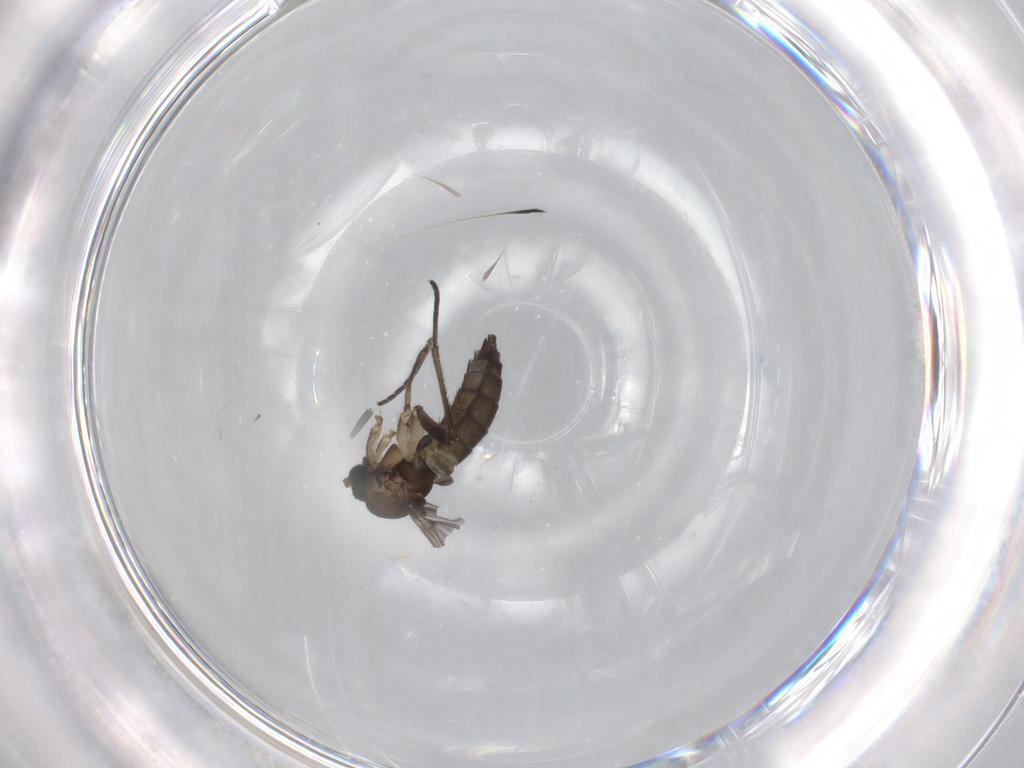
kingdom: Animalia
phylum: Arthropoda
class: Insecta
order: Diptera
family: Sciaridae
